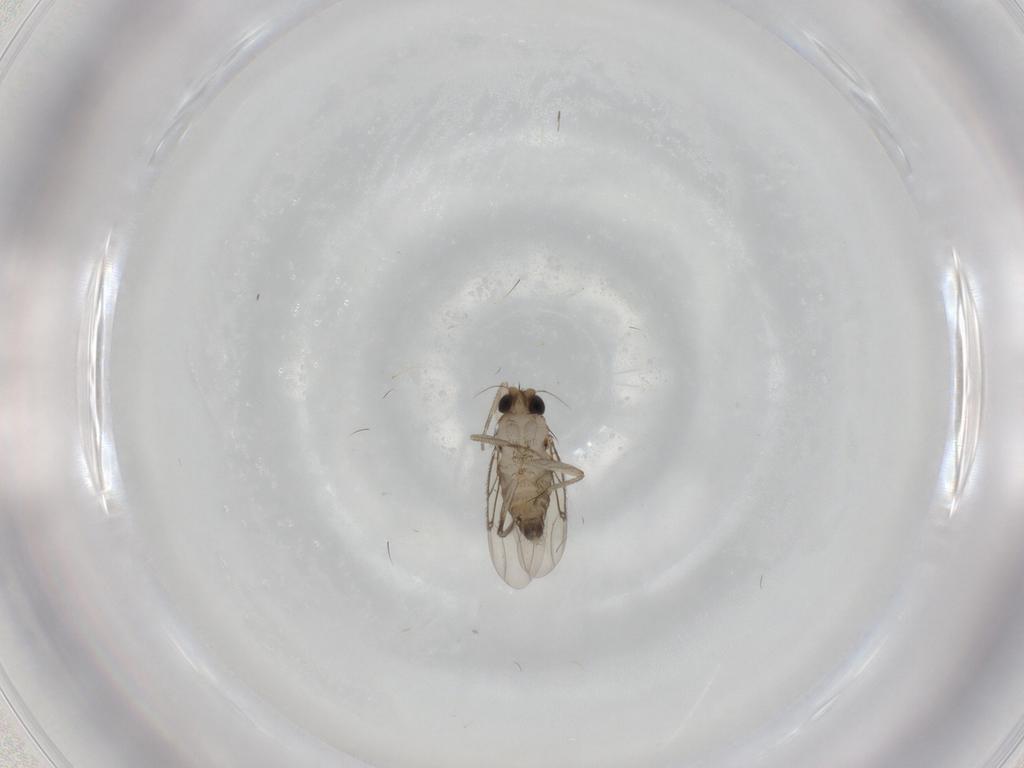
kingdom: Animalia
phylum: Arthropoda
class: Insecta
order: Diptera
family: Phoridae
